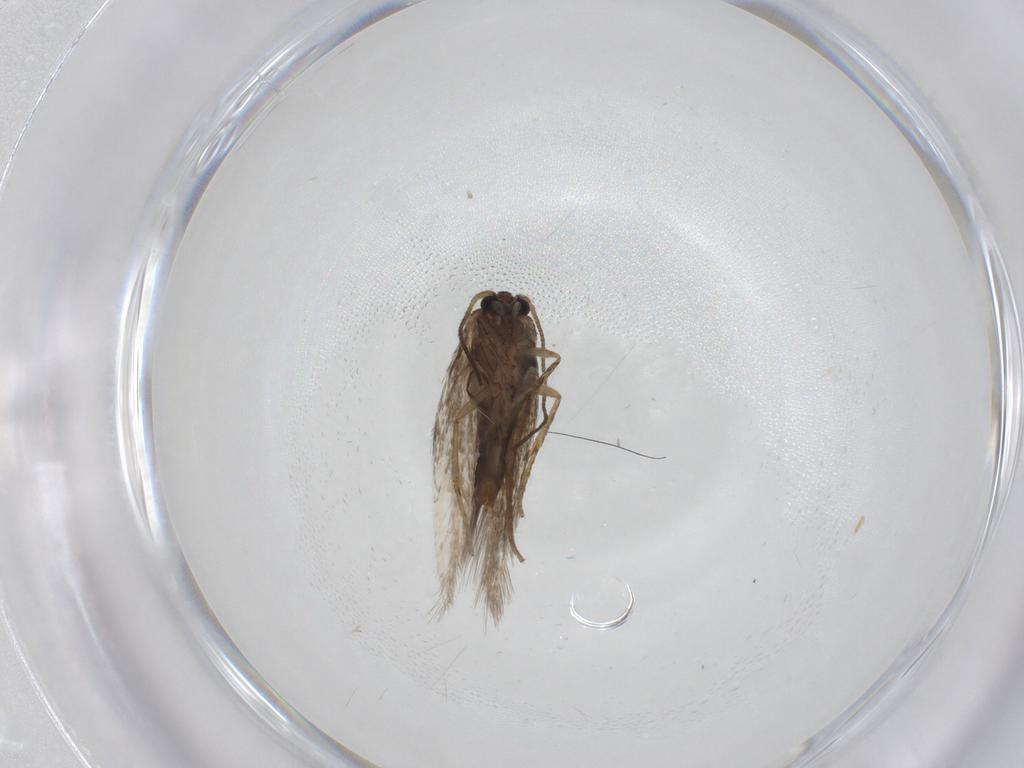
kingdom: Animalia
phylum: Arthropoda
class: Insecta
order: Lepidoptera
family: Nepticulidae
